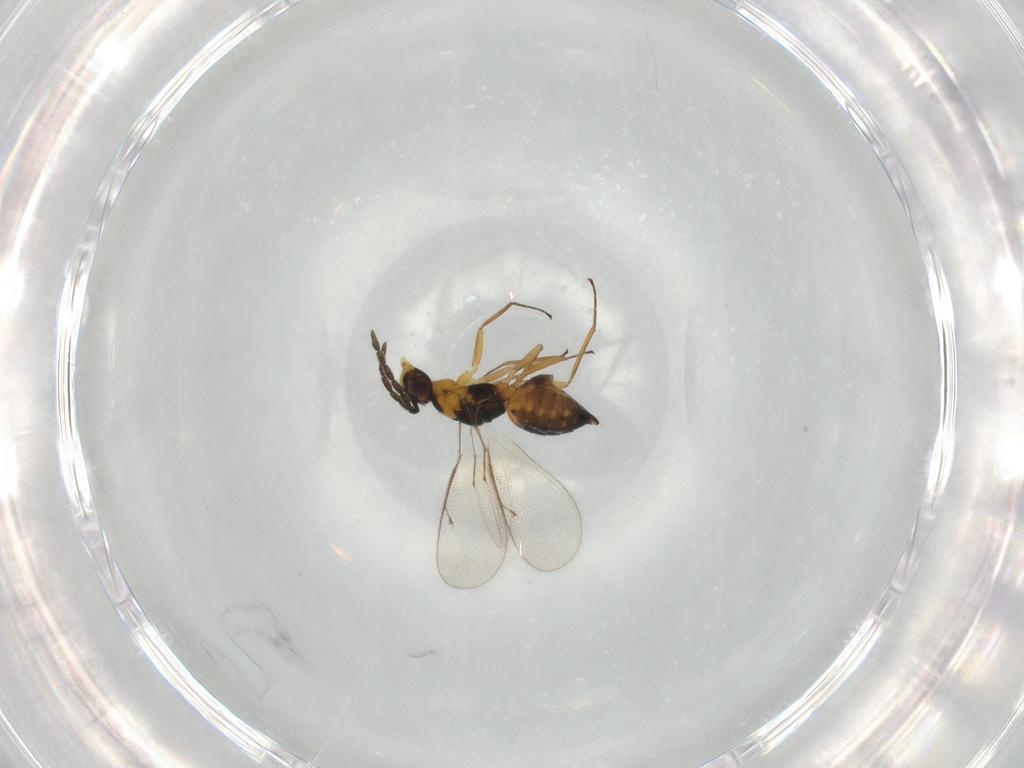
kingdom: Animalia
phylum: Arthropoda
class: Insecta
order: Hymenoptera
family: Eulophidae
